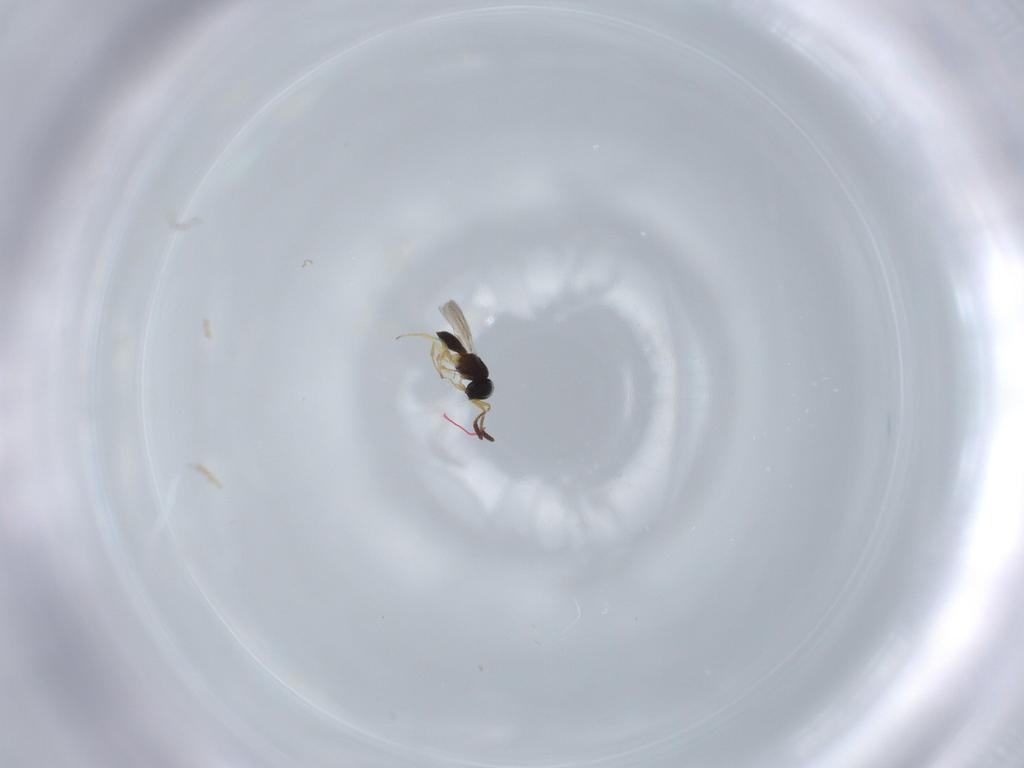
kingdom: Animalia
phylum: Arthropoda
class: Insecta
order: Hymenoptera
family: Scelionidae
